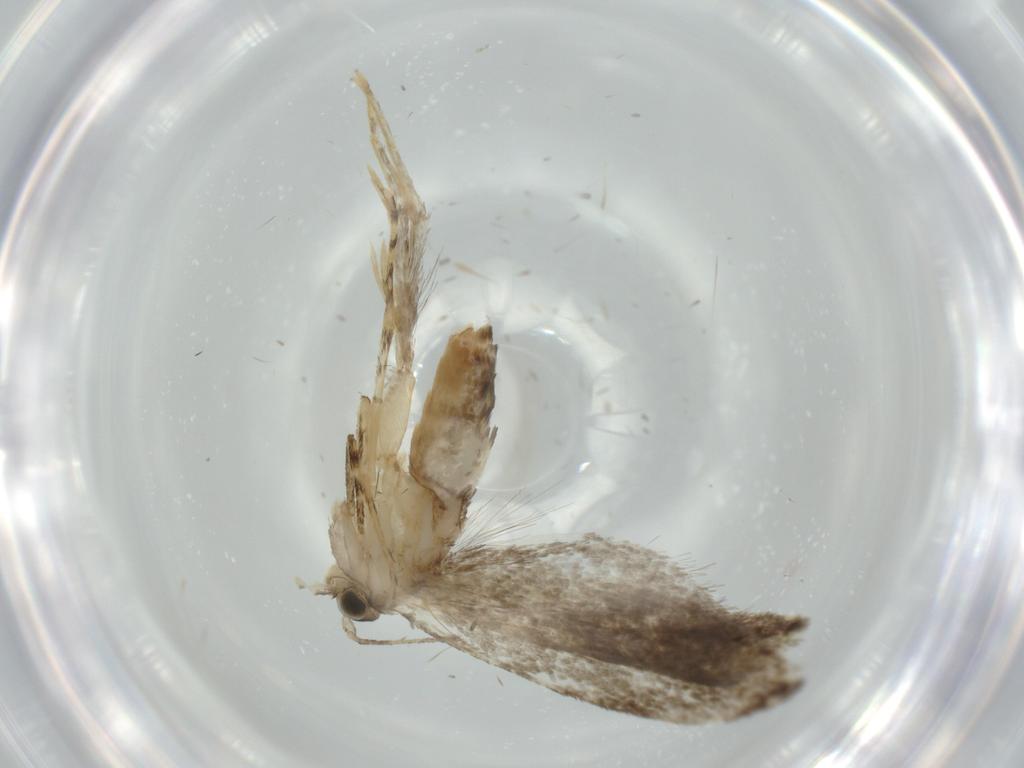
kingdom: Animalia
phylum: Arthropoda
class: Insecta
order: Lepidoptera
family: Tineidae
